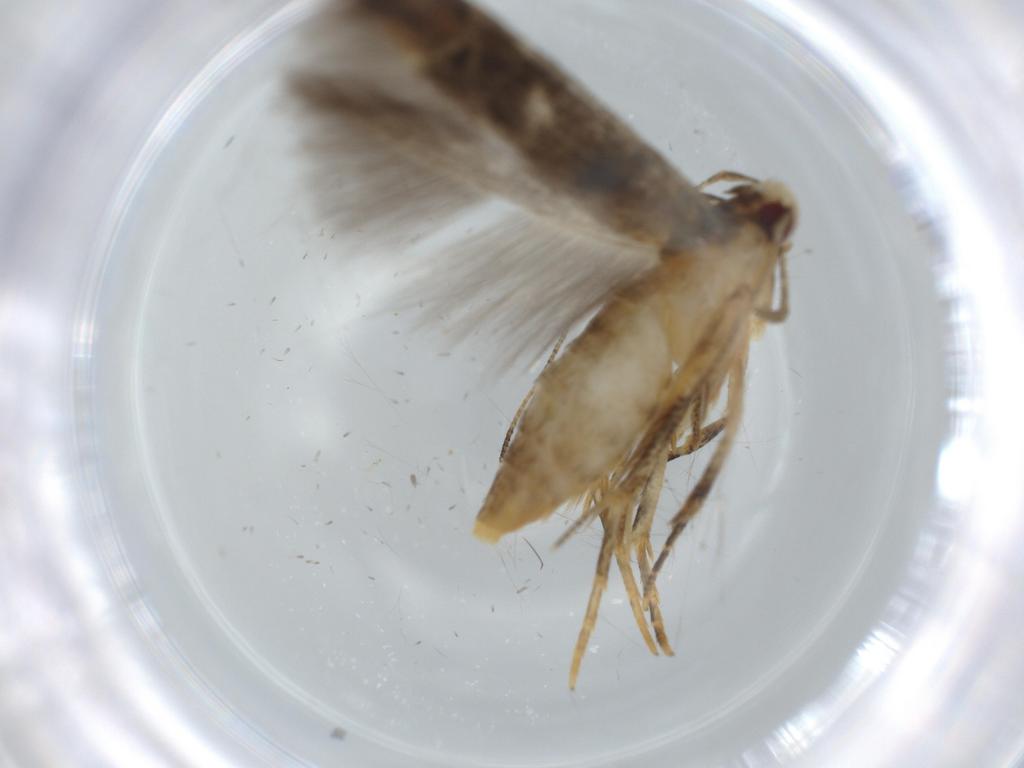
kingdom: Animalia
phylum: Arthropoda
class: Insecta
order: Lepidoptera
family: Cosmopterigidae
